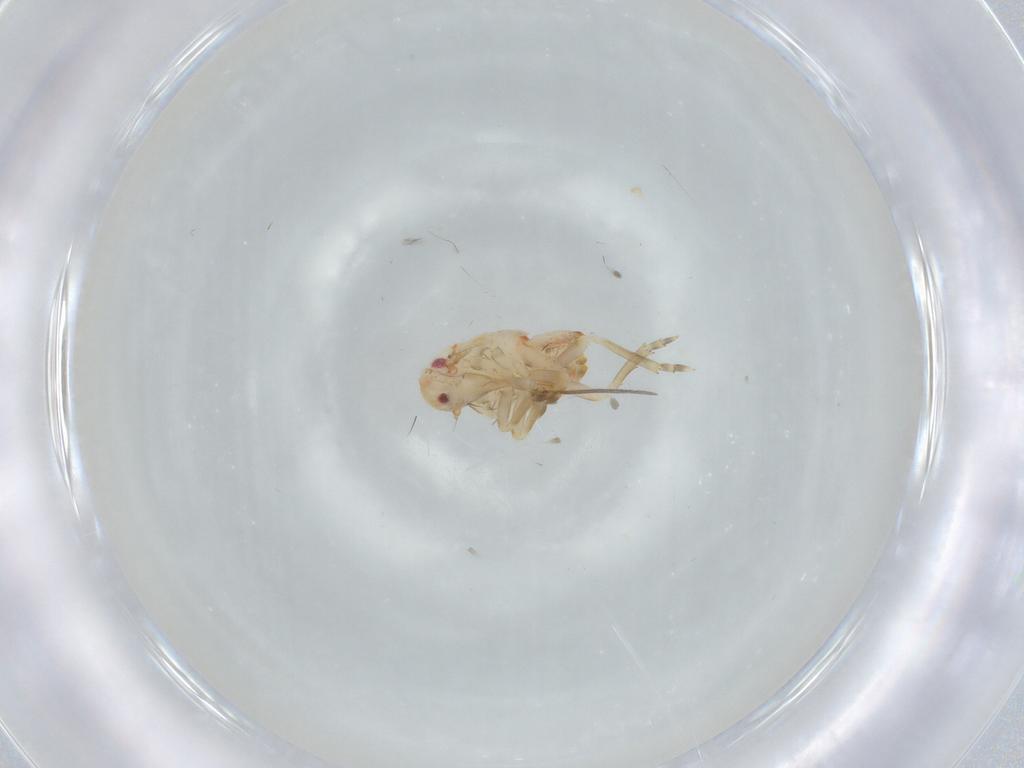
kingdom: Animalia
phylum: Arthropoda
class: Insecta
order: Hemiptera
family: Flatidae
